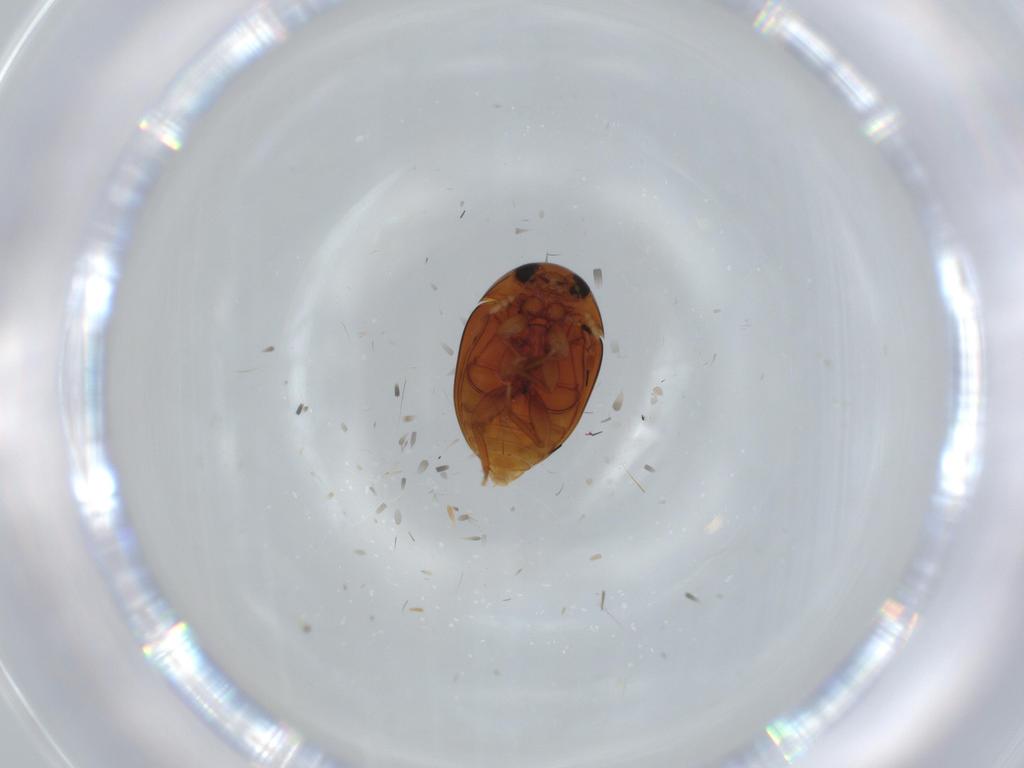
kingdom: Animalia
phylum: Arthropoda
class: Insecta
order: Coleoptera
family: Phalacridae
